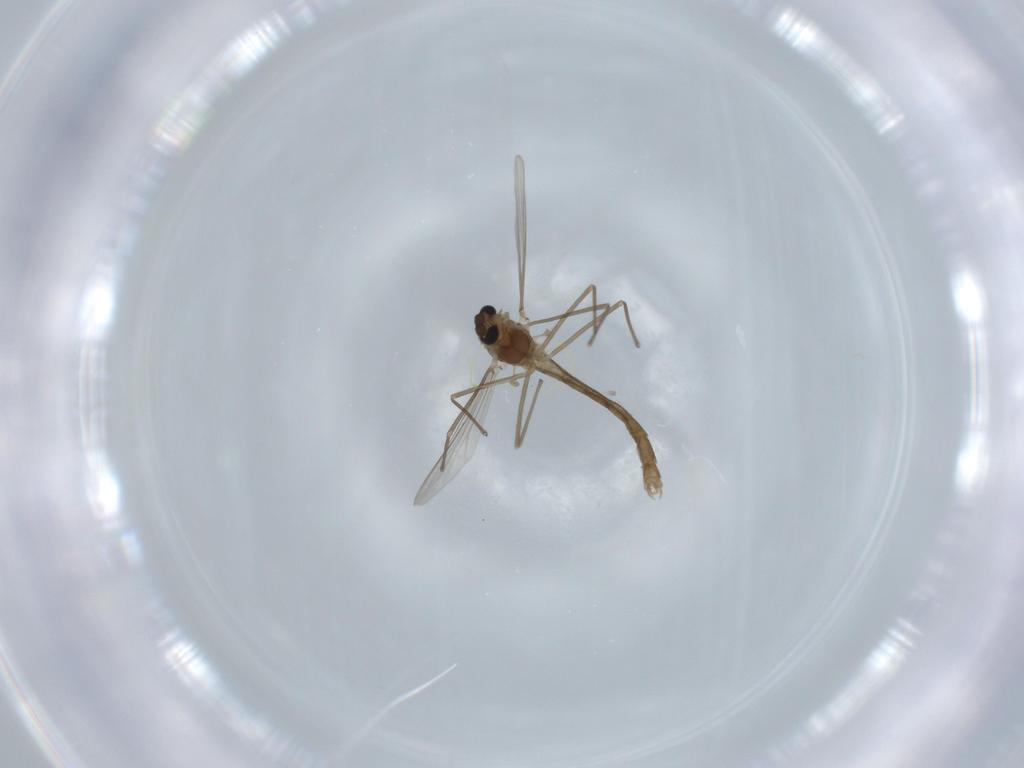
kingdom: Animalia
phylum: Arthropoda
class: Insecta
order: Diptera
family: Chironomidae
